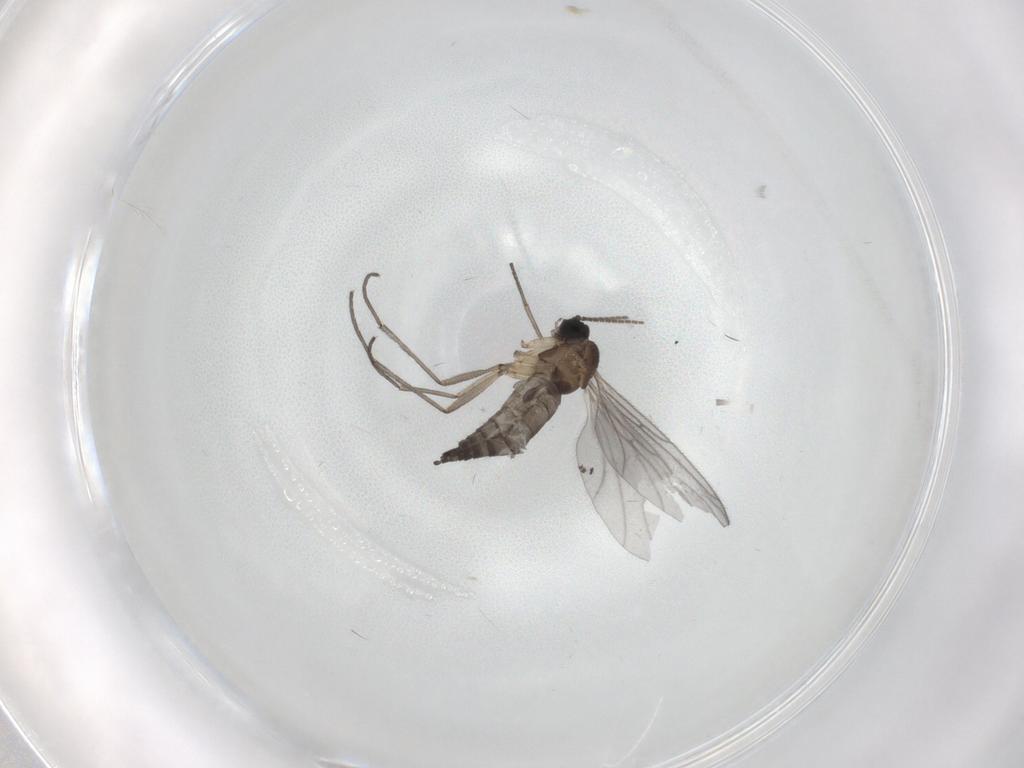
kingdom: Animalia
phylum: Arthropoda
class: Insecta
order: Diptera
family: Sciaridae
